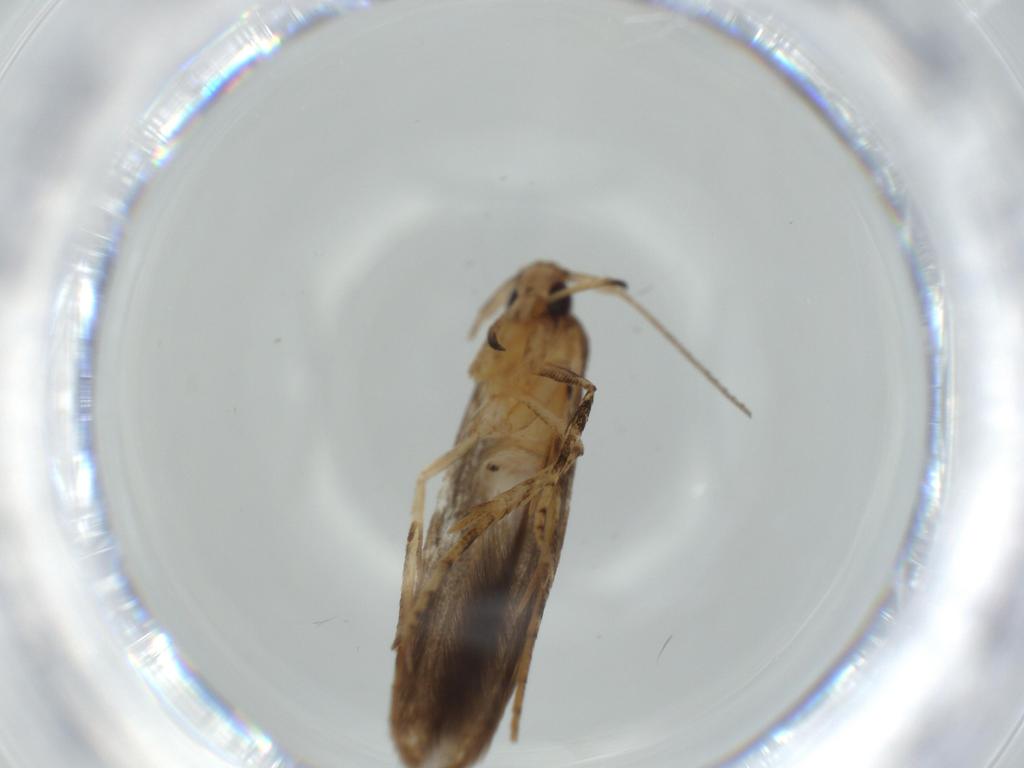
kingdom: Animalia
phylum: Arthropoda
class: Insecta
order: Lepidoptera
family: Heliodinidae
